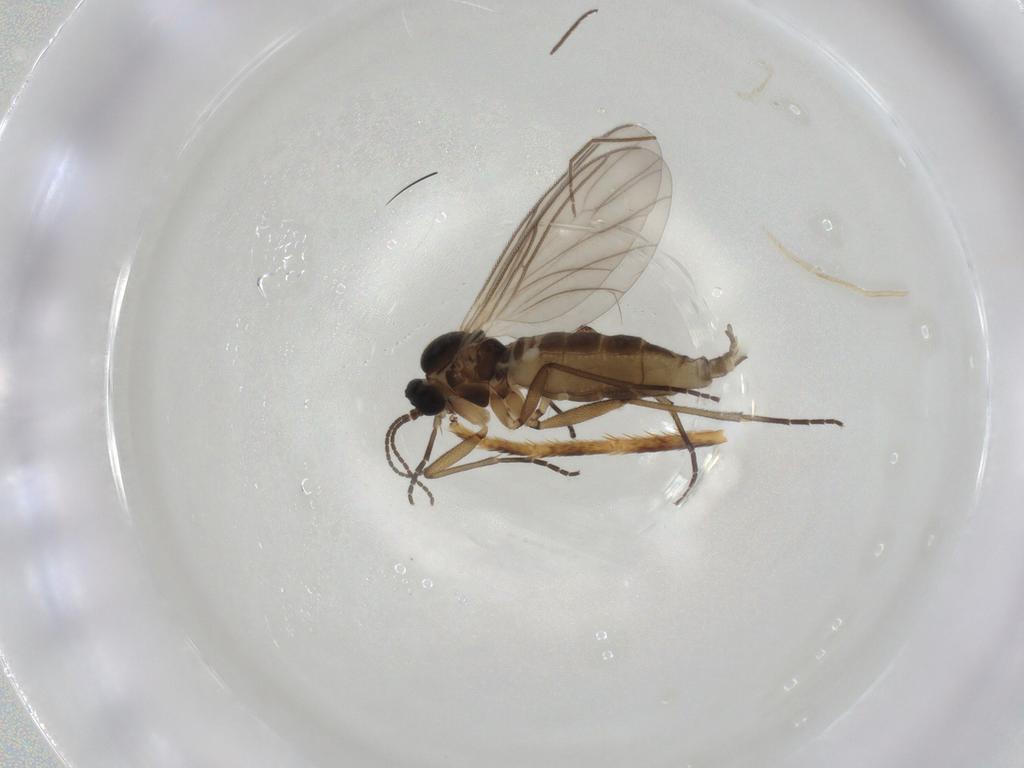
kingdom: Animalia
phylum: Arthropoda
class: Insecta
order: Diptera
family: Chironomidae
